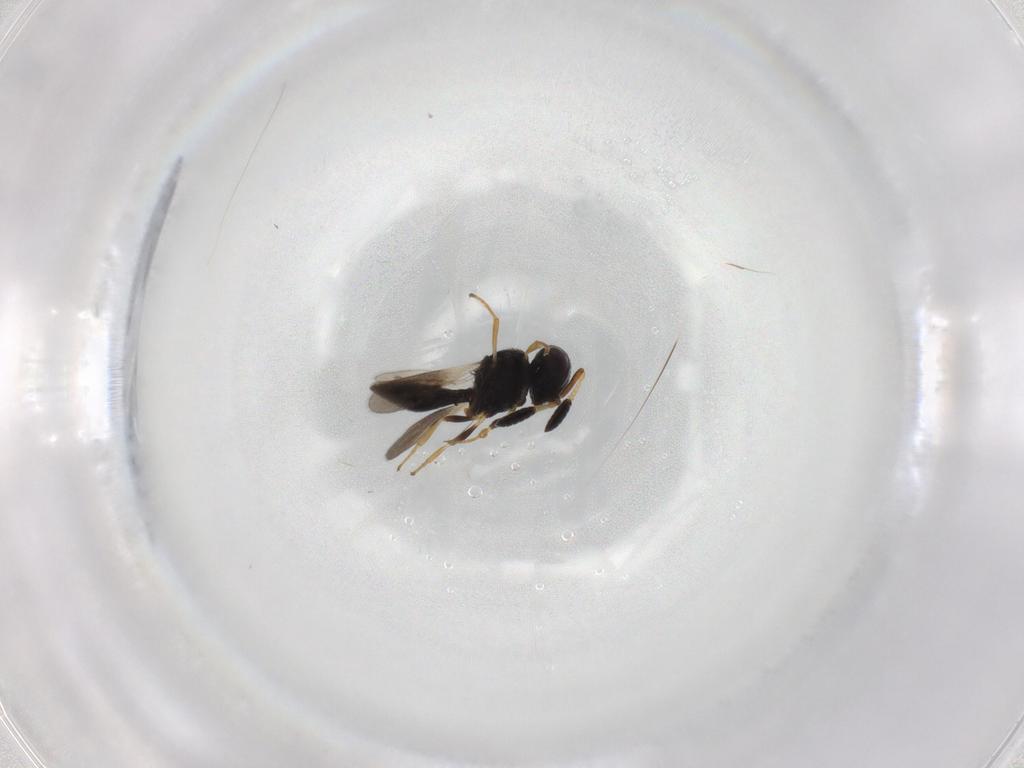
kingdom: Animalia
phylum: Arthropoda
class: Insecta
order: Hymenoptera
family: Scelionidae
